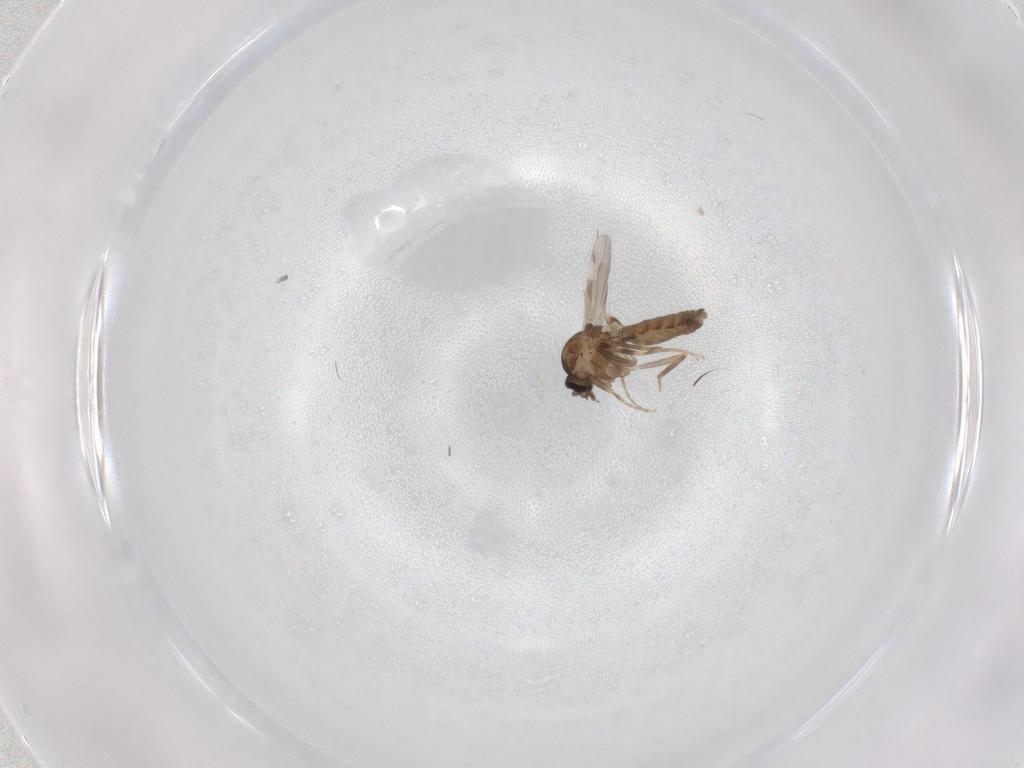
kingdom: Animalia
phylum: Arthropoda
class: Insecta
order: Diptera
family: Ceratopogonidae
